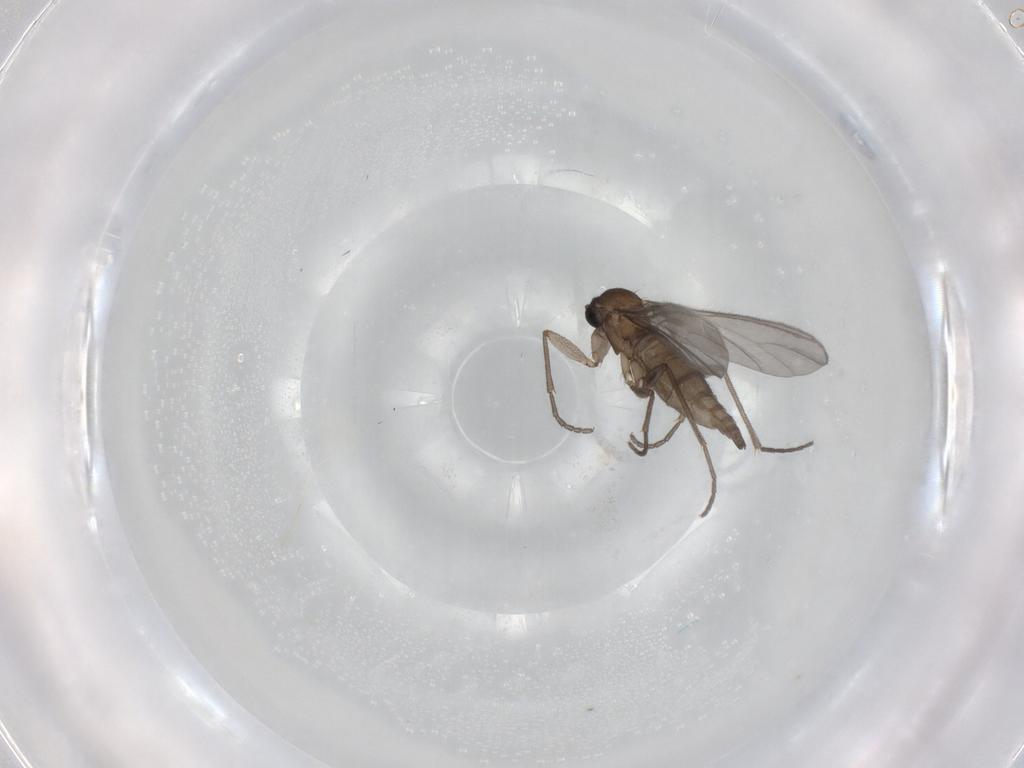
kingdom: Animalia
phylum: Arthropoda
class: Insecta
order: Diptera
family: Sciaridae
